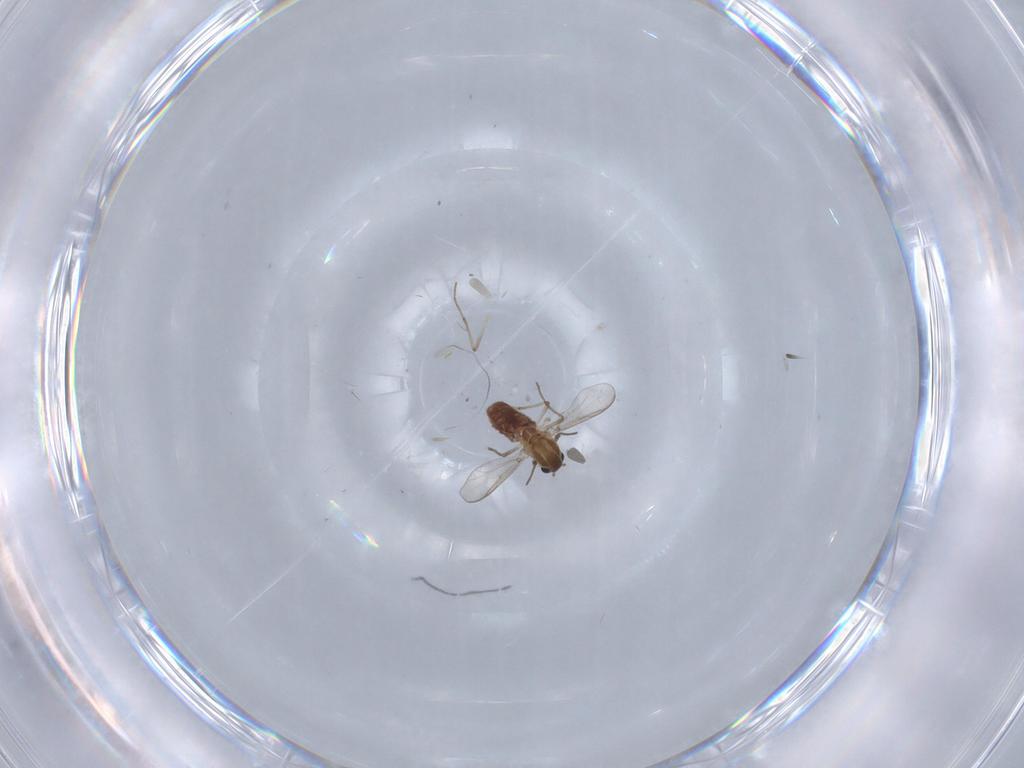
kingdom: Animalia
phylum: Arthropoda
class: Insecta
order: Diptera
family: Chironomidae
